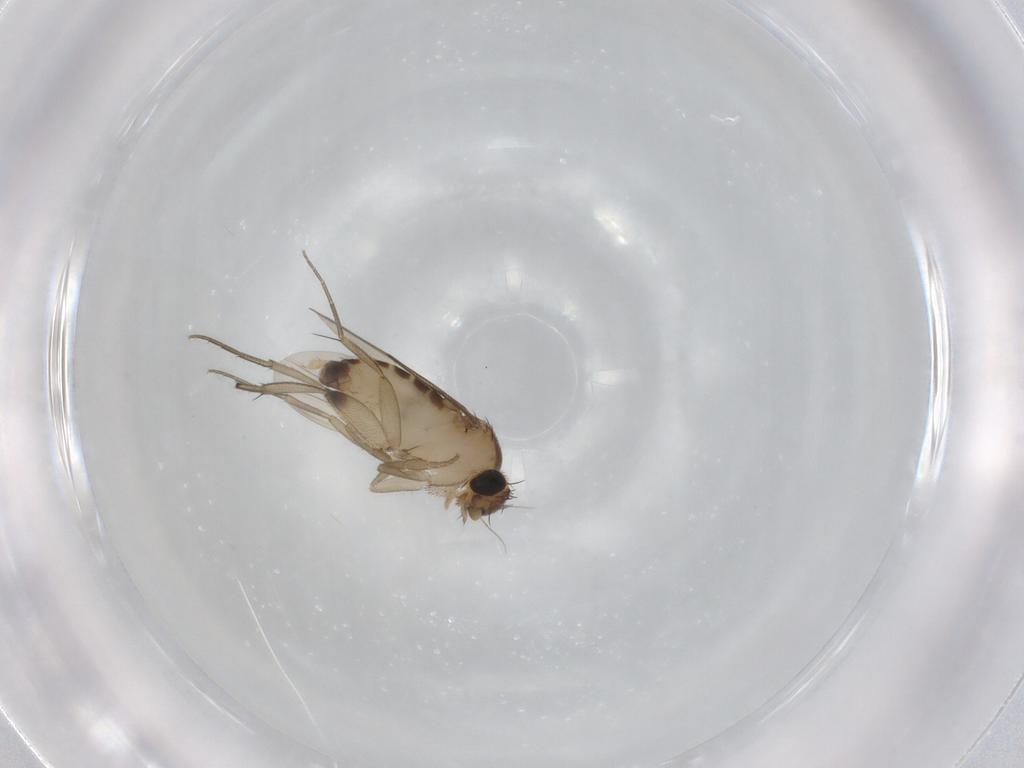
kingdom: Animalia
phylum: Arthropoda
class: Insecta
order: Diptera
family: Phoridae
